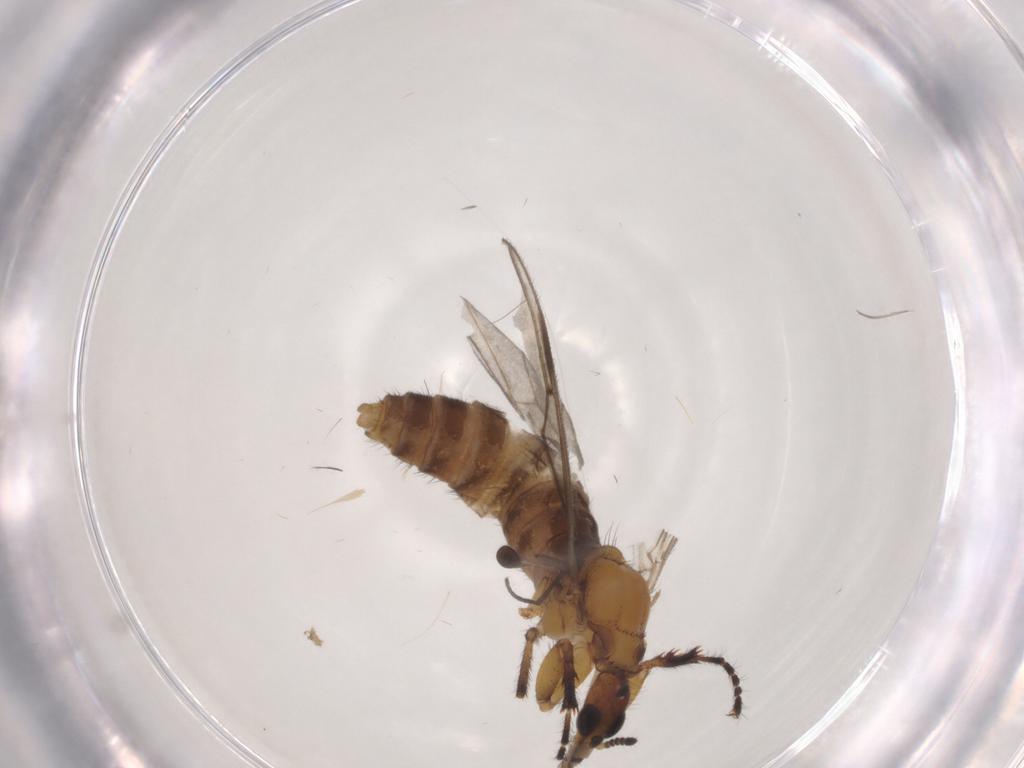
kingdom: Animalia
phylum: Arthropoda
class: Insecta
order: Diptera
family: Bibionidae
